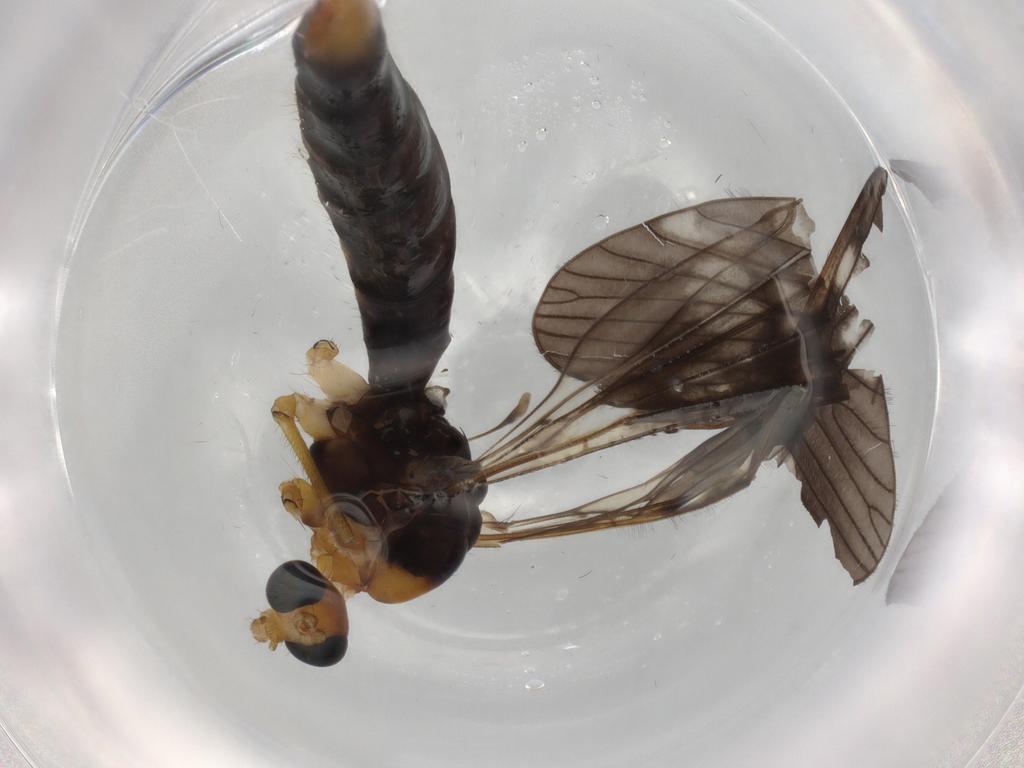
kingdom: Animalia
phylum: Arthropoda
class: Insecta
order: Diptera
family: Limoniidae
